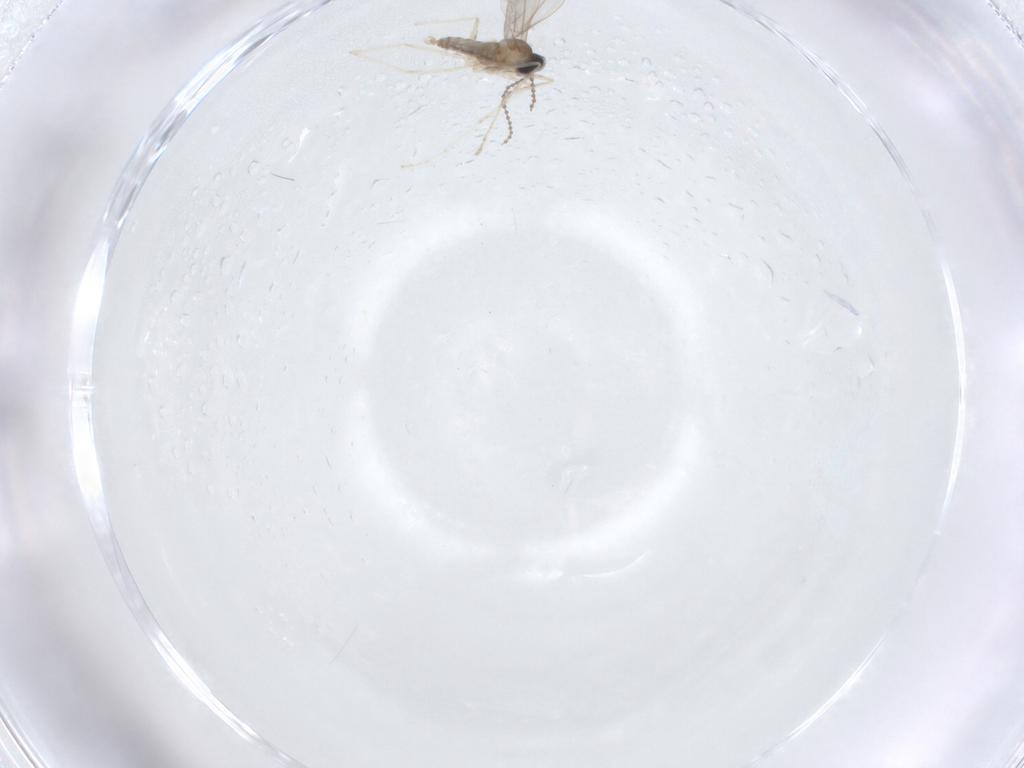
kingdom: Animalia
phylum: Arthropoda
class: Insecta
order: Diptera
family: Cecidomyiidae
